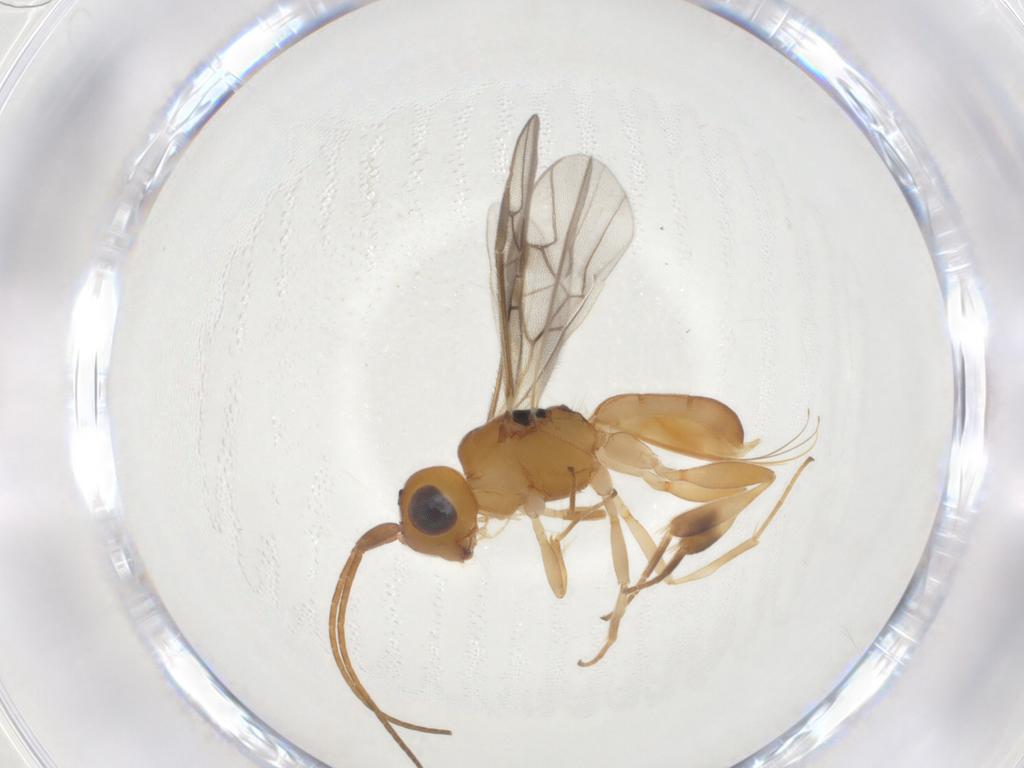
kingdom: Animalia
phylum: Arthropoda
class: Insecta
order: Hymenoptera
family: Braconidae
